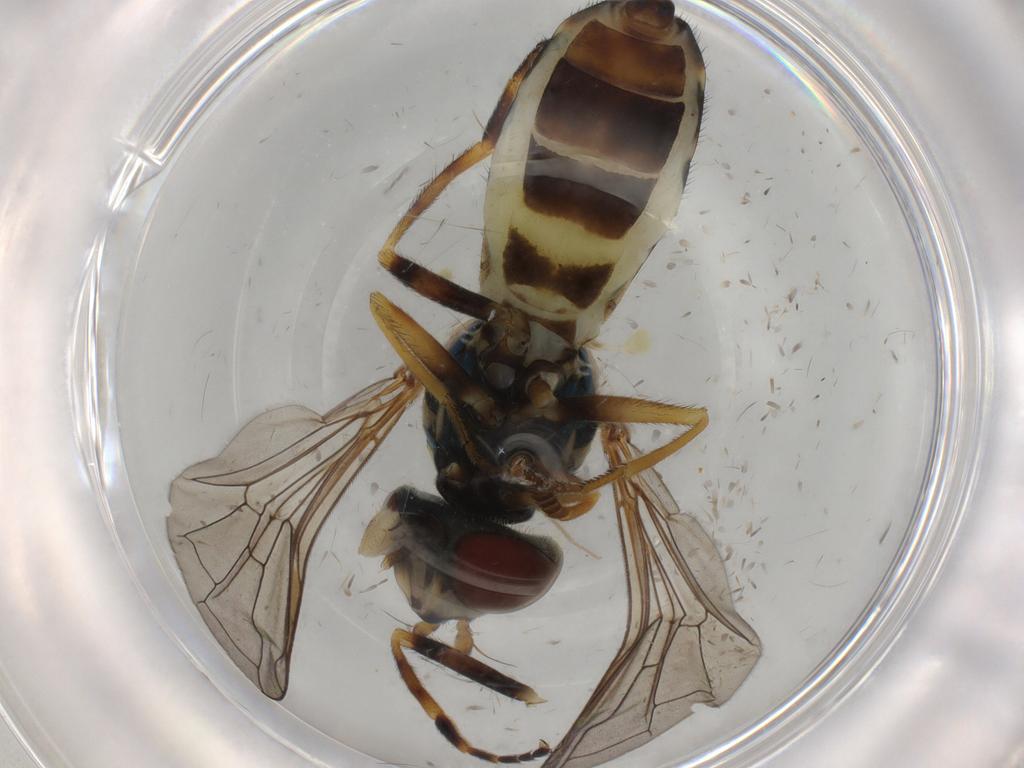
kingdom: Animalia
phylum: Arthropoda
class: Insecta
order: Diptera
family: Syrphidae
